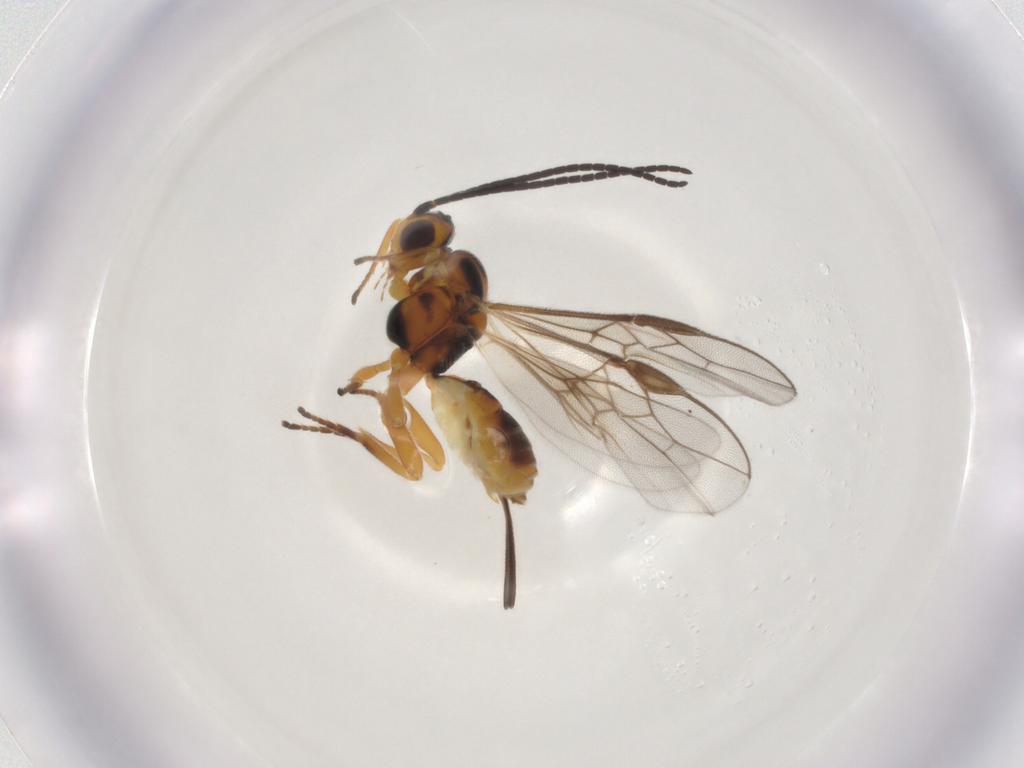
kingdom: Animalia
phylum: Arthropoda
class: Insecta
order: Hymenoptera
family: Braconidae
